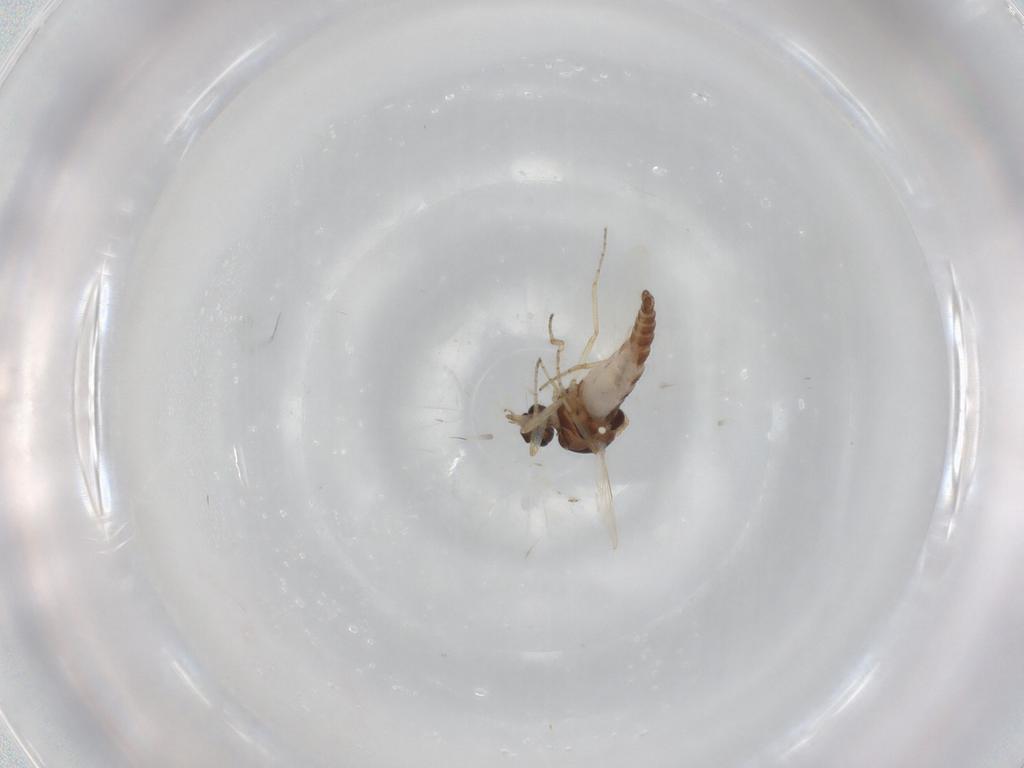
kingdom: Animalia
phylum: Arthropoda
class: Insecta
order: Diptera
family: Ceratopogonidae
